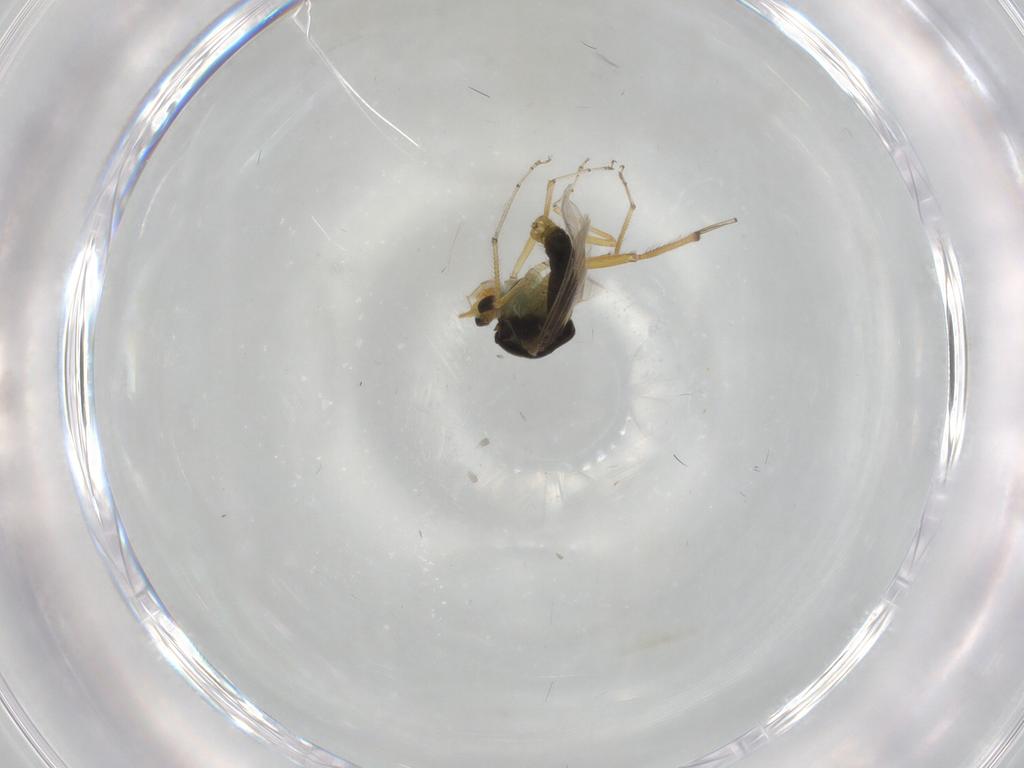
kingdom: Animalia
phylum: Arthropoda
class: Insecta
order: Diptera
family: Ceratopogonidae
